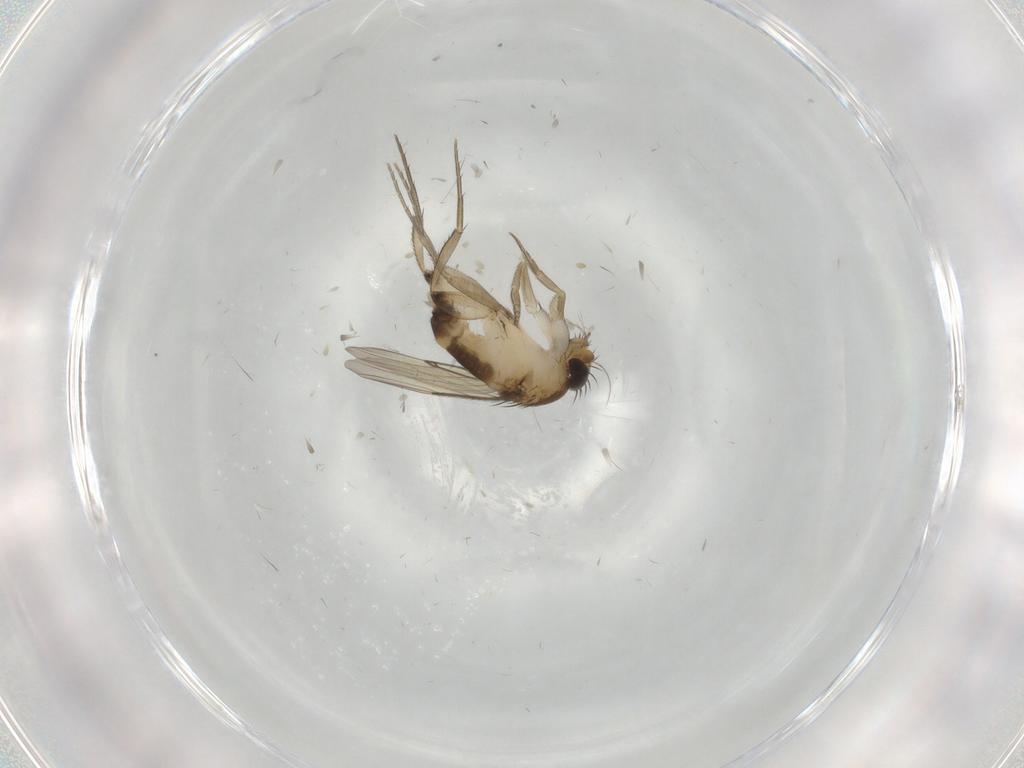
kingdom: Animalia
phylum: Arthropoda
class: Insecta
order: Diptera
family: Phoridae
